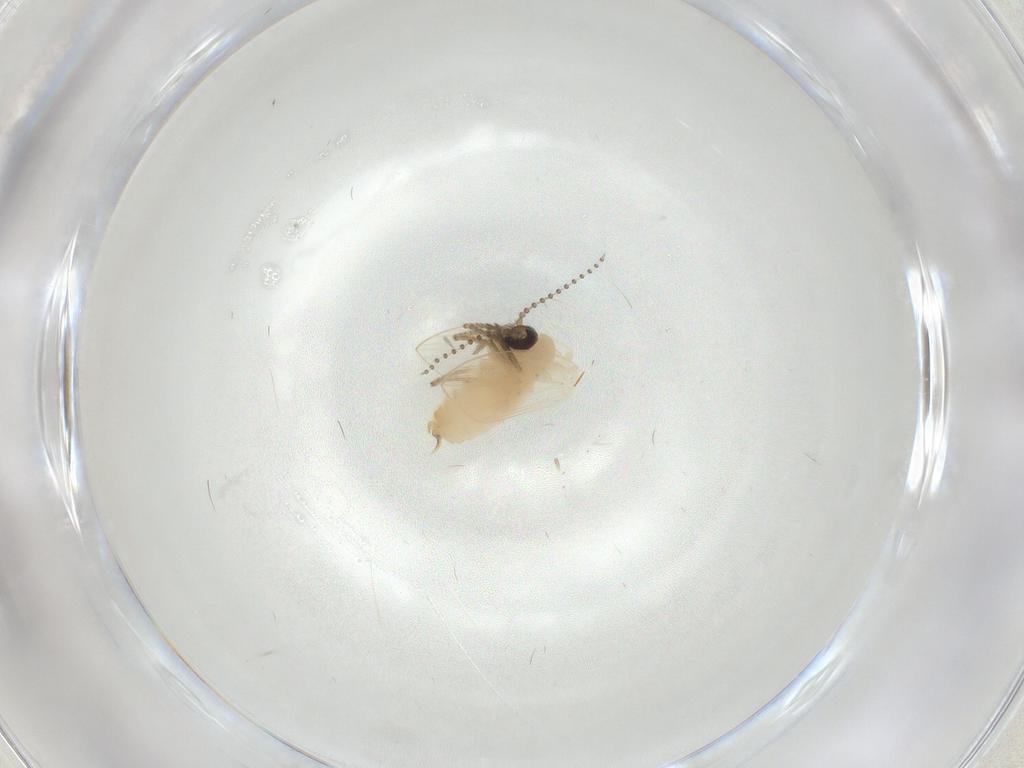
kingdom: Animalia
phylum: Arthropoda
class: Insecta
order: Diptera
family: Psychodidae
